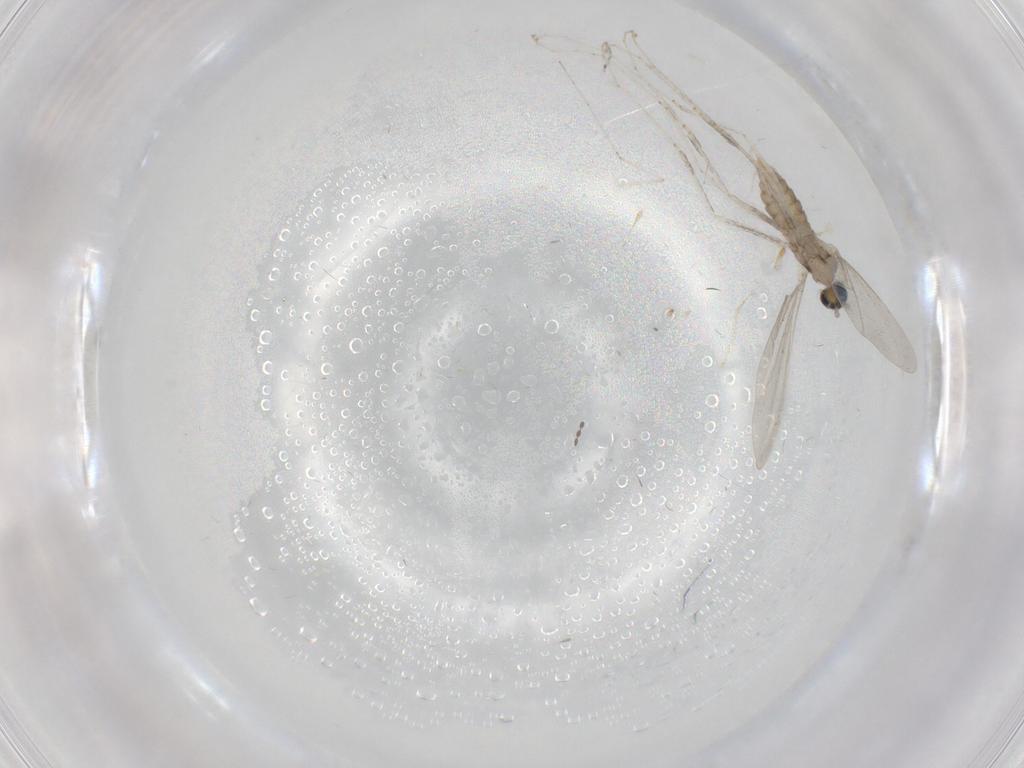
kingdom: Animalia
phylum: Arthropoda
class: Insecta
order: Diptera
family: Cecidomyiidae
